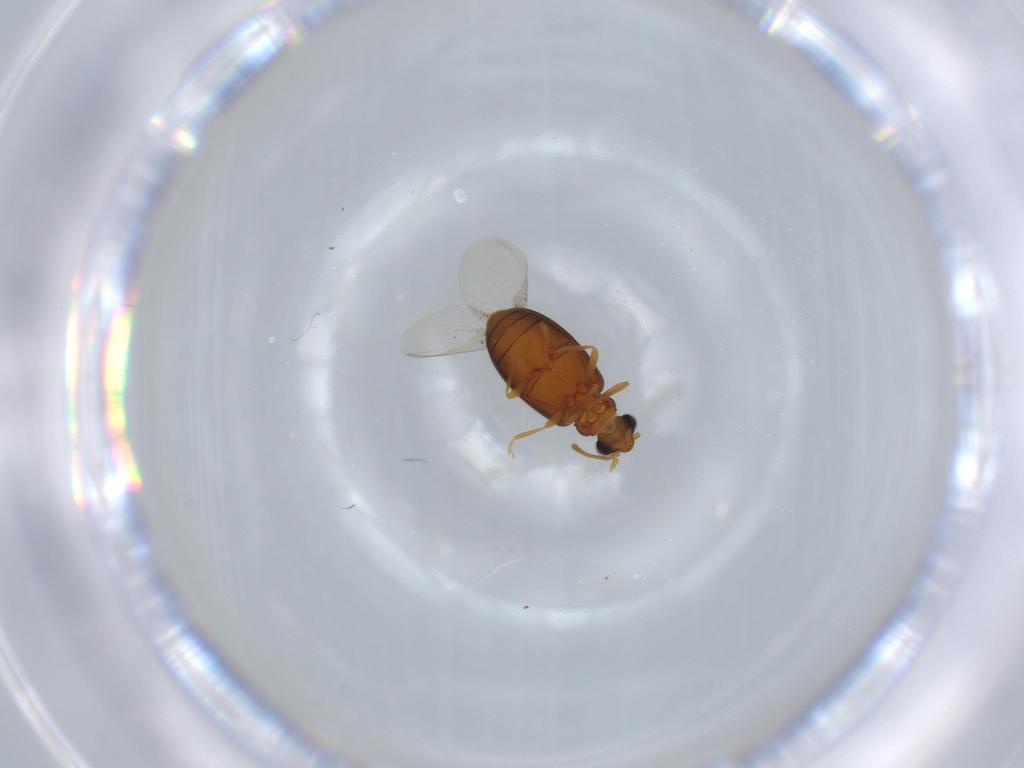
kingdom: Animalia
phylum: Arthropoda
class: Insecta
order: Coleoptera
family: Aderidae
